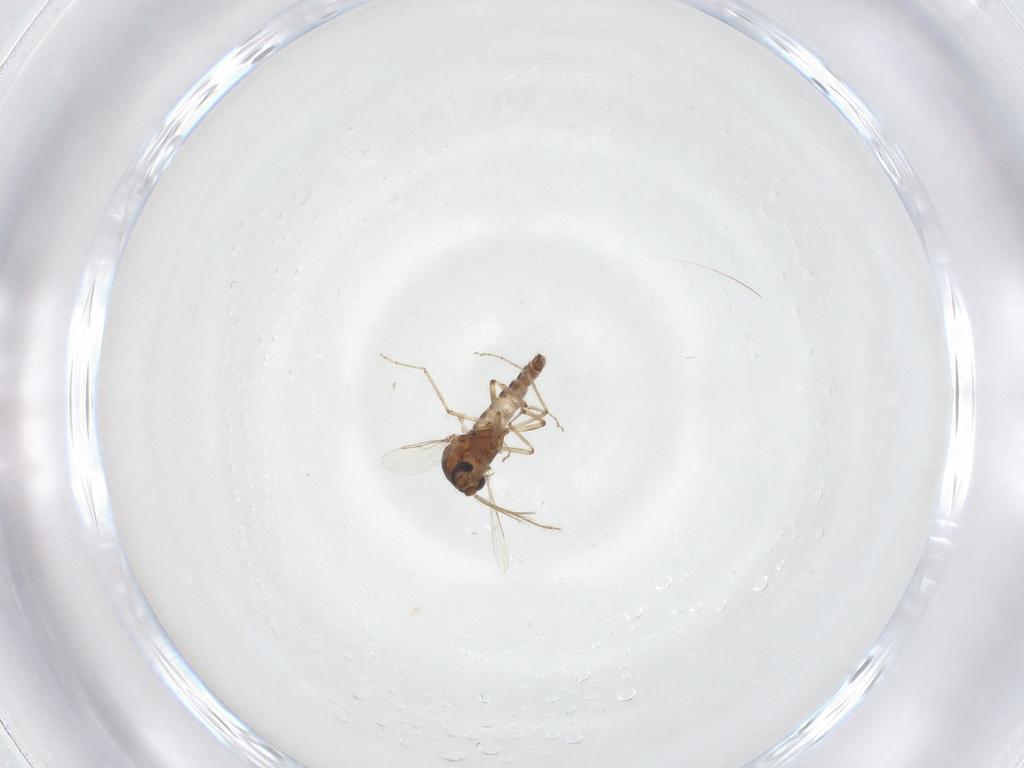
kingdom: Animalia
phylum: Arthropoda
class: Insecta
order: Diptera
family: Ceratopogonidae
